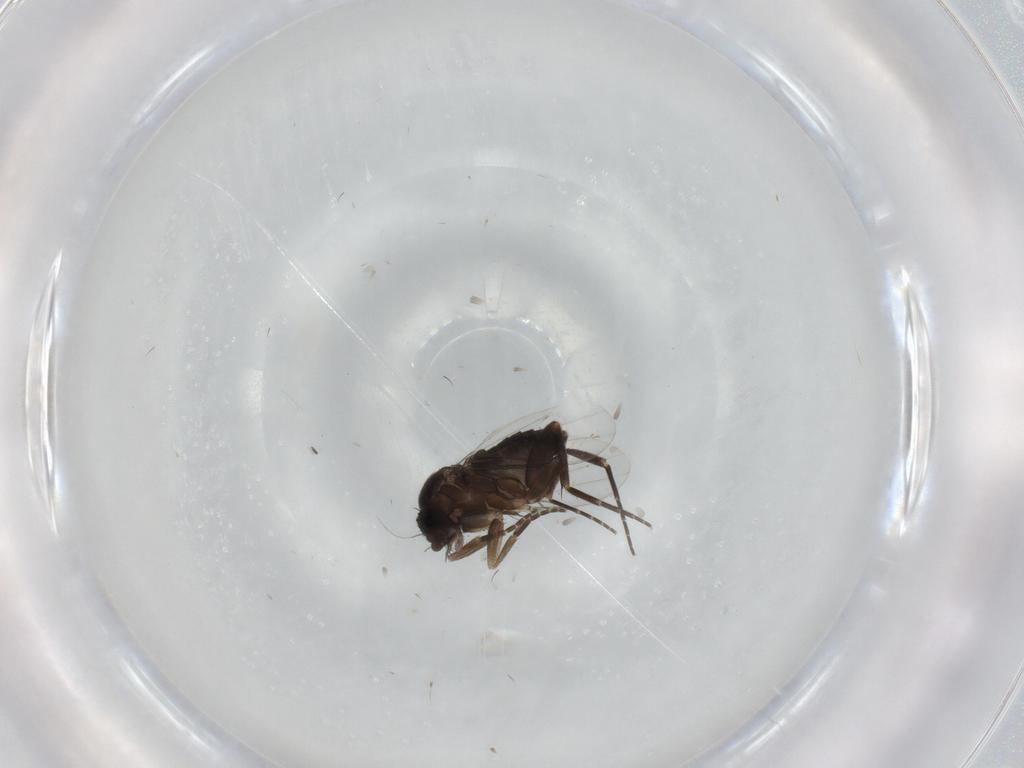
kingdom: Animalia
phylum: Arthropoda
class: Insecta
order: Diptera
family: Phoridae
